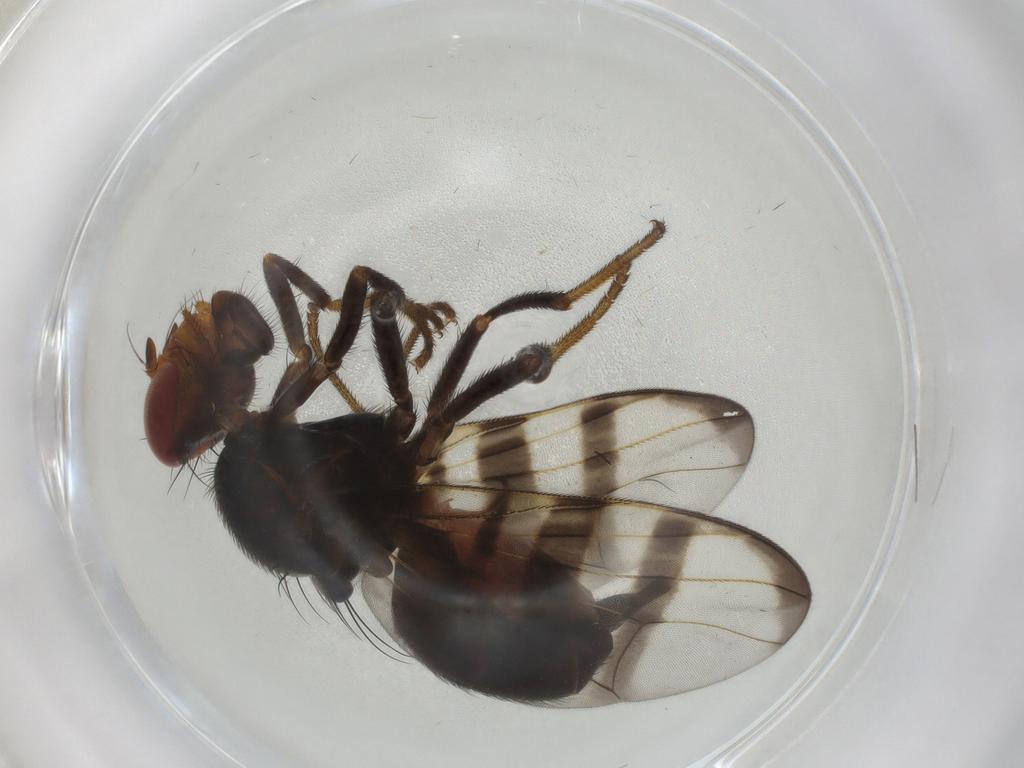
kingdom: Animalia
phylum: Arthropoda
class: Insecta
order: Diptera
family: Platystomatidae
